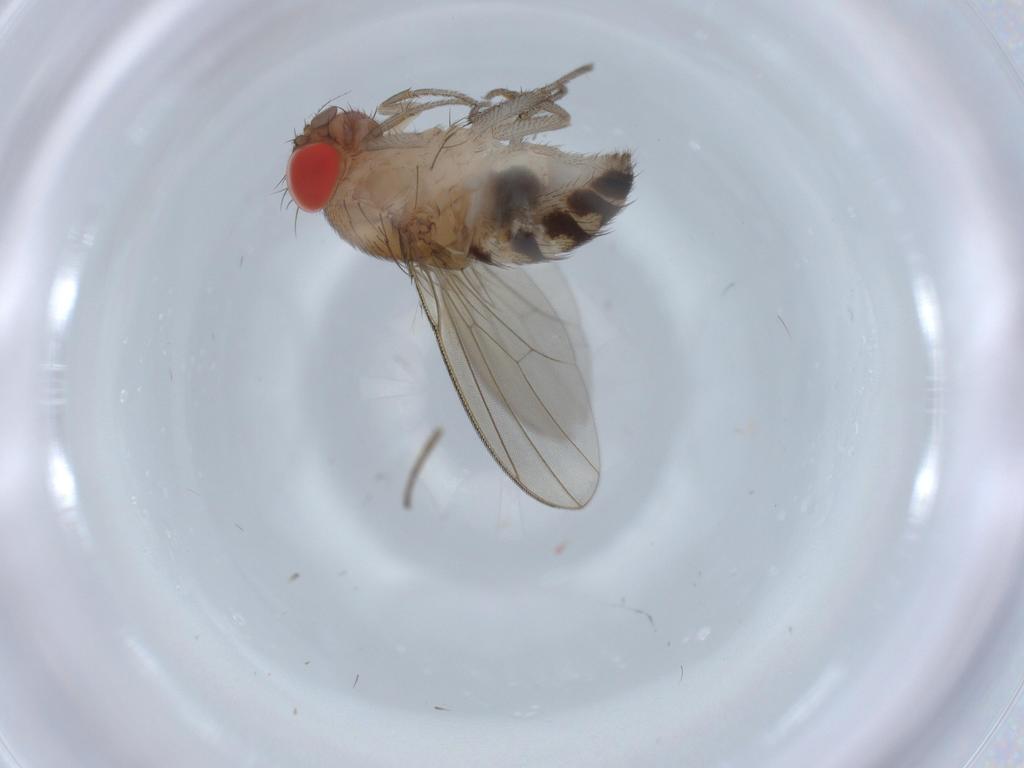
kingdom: Animalia
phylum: Arthropoda
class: Insecta
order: Diptera
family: Drosophilidae
